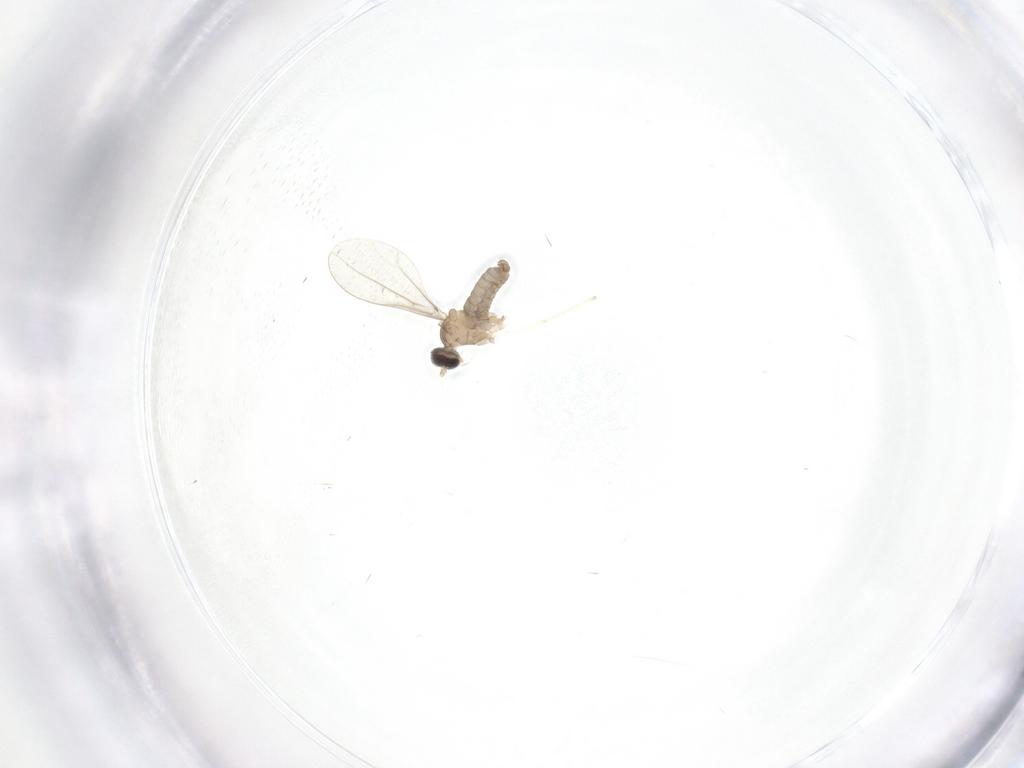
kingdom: Animalia
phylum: Arthropoda
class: Insecta
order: Diptera
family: Cecidomyiidae
